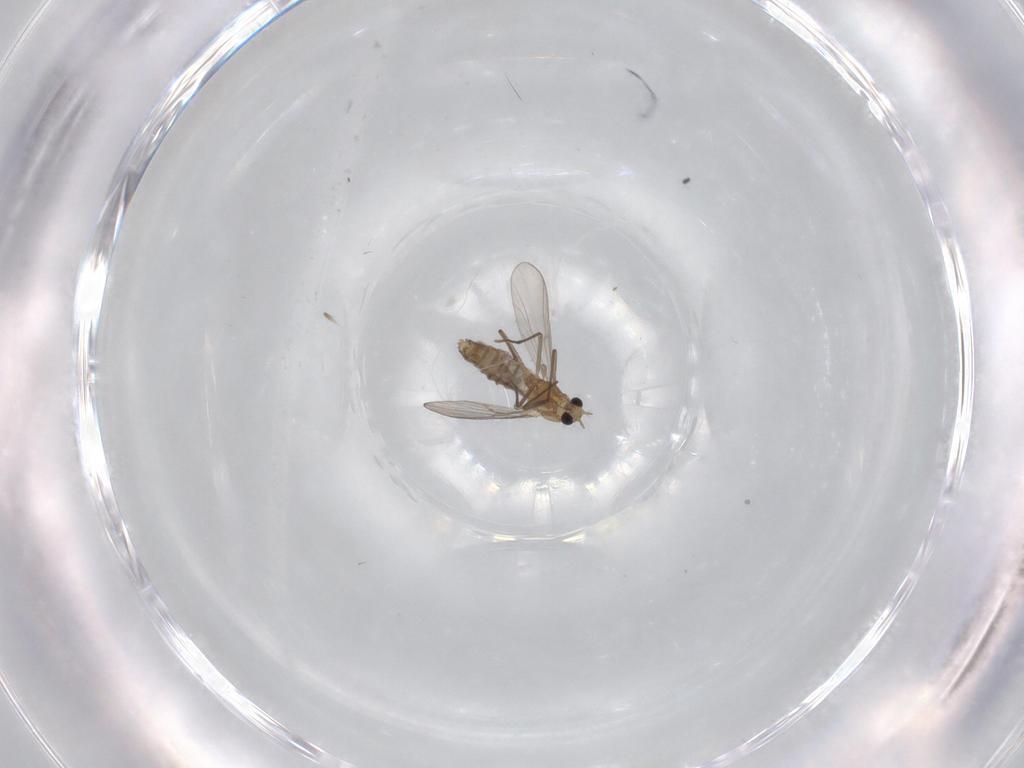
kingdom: Animalia
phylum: Arthropoda
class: Insecta
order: Diptera
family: Chironomidae
